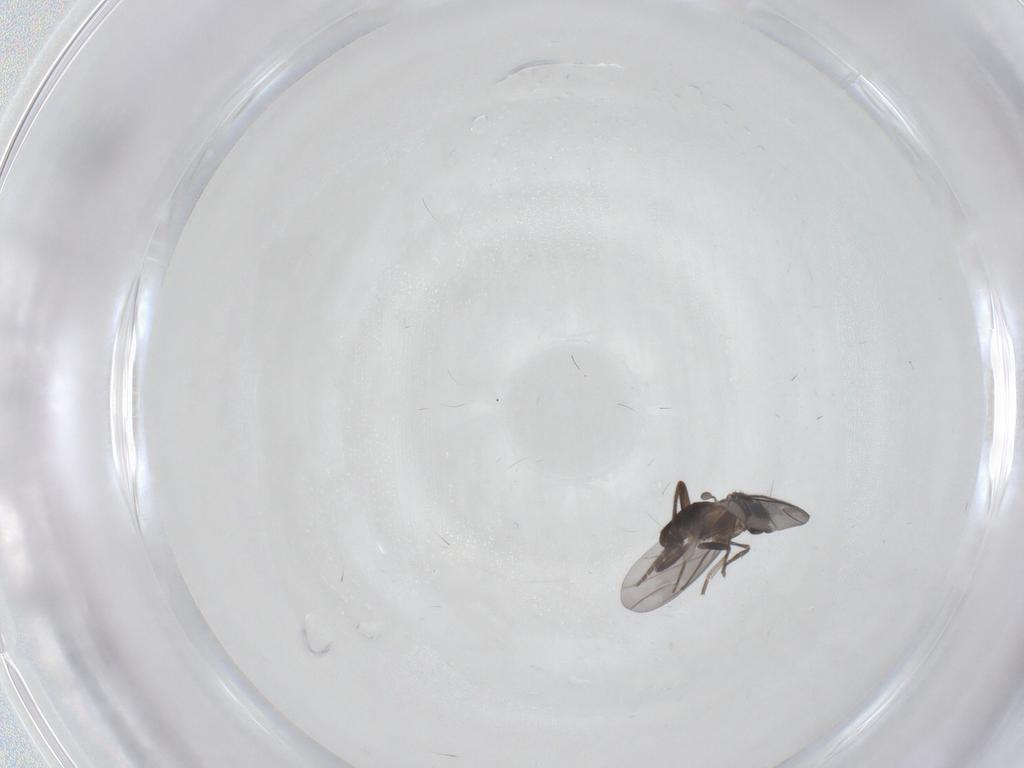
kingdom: Animalia
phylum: Arthropoda
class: Insecta
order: Diptera
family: Phoridae
